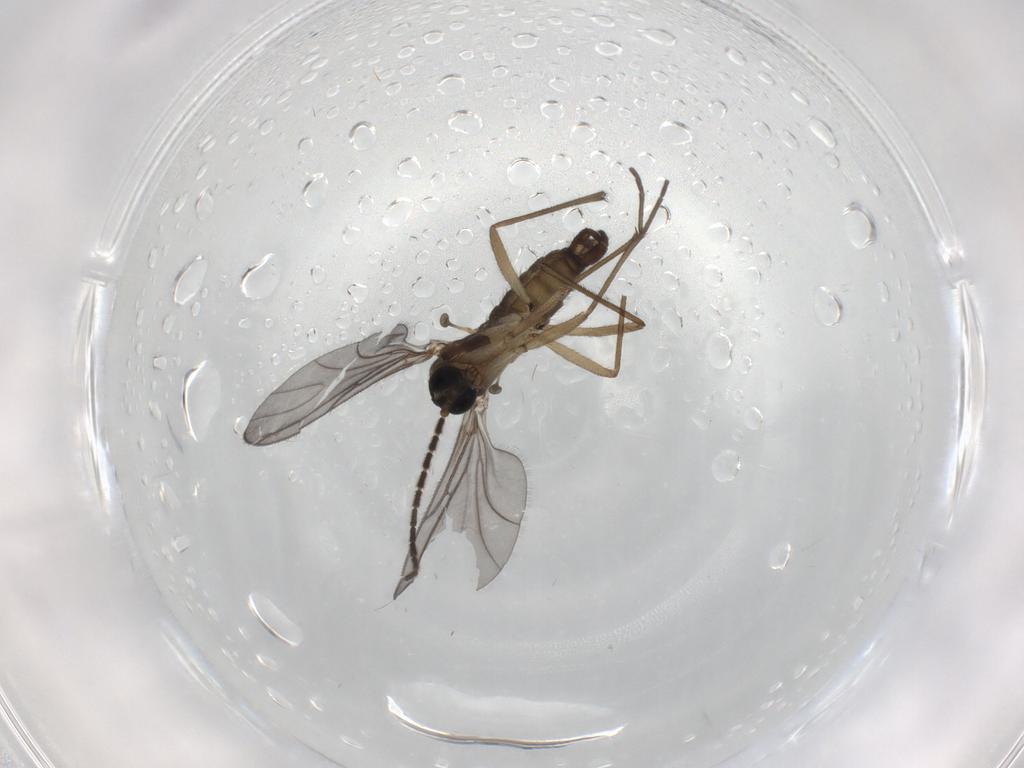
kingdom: Animalia
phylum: Arthropoda
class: Insecta
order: Diptera
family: Sciaridae
